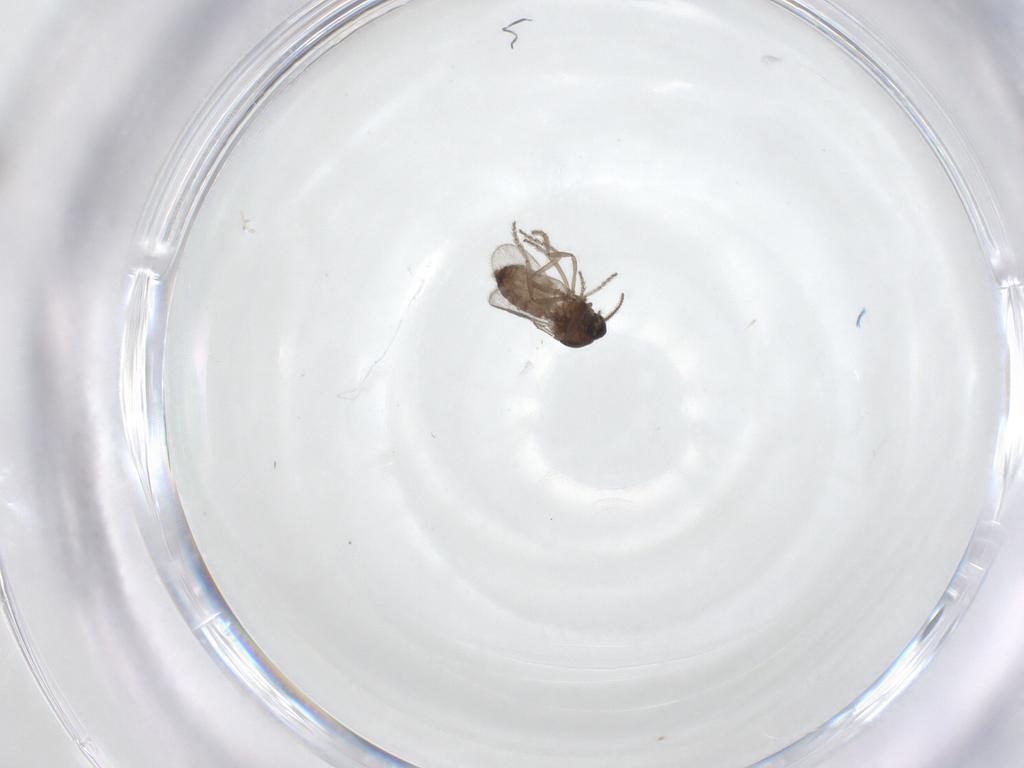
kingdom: Animalia
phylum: Arthropoda
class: Insecta
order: Diptera
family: Ceratopogonidae
